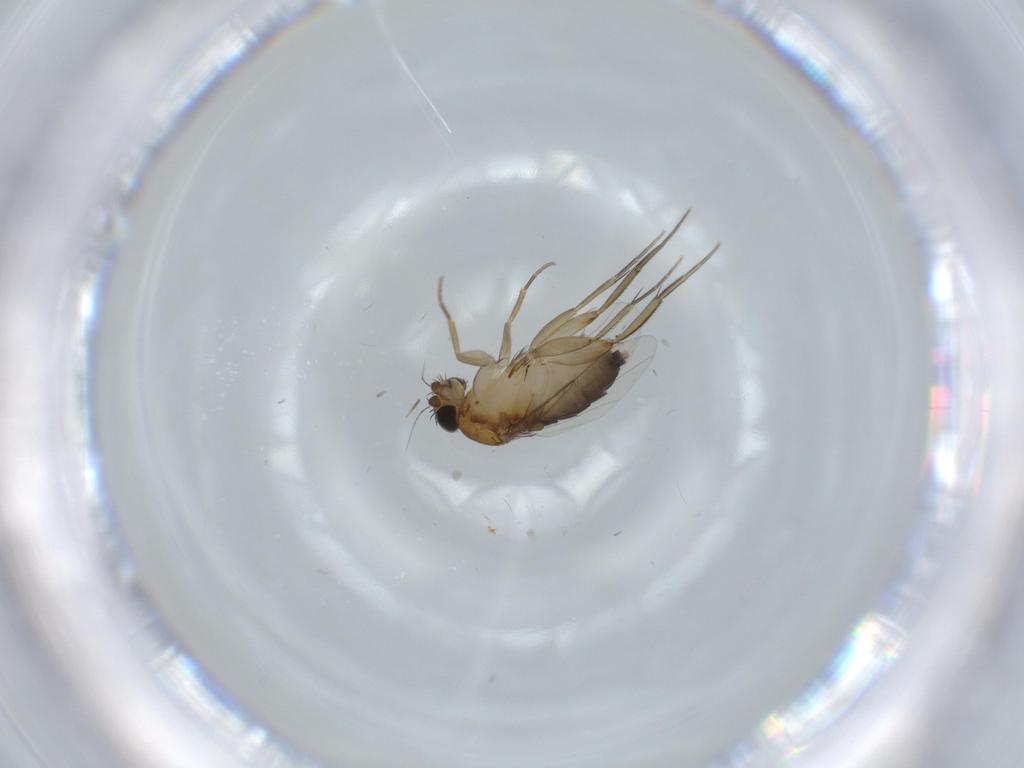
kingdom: Animalia
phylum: Arthropoda
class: Insecta
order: Diptera
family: Phoridae
